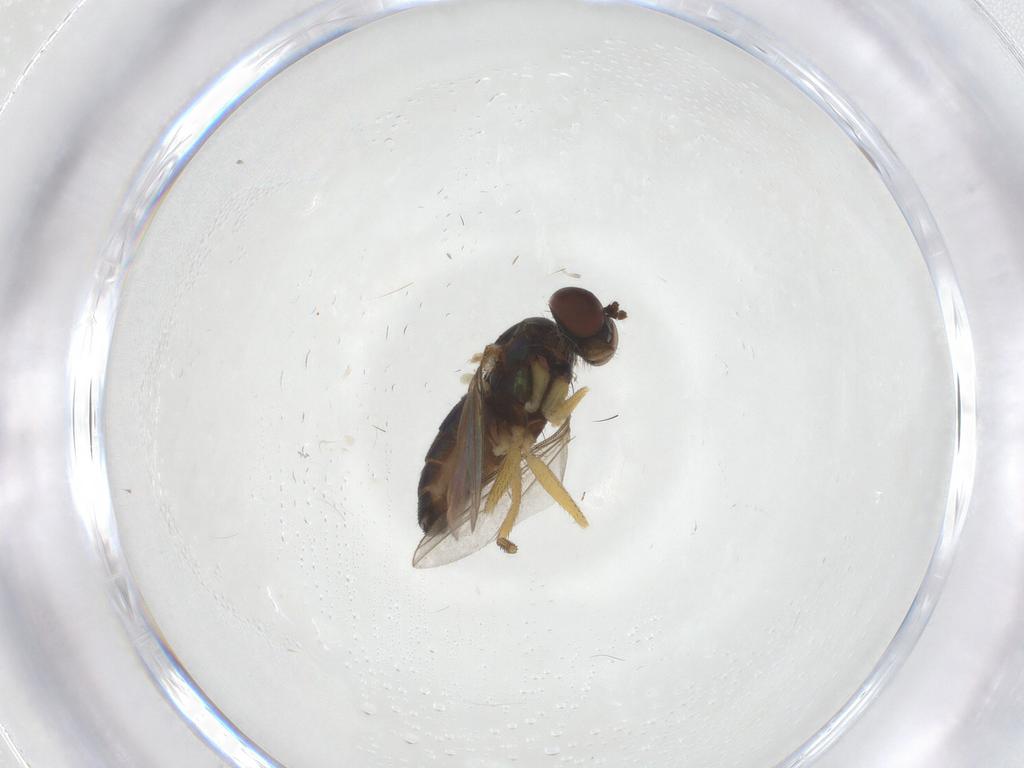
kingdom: Animalia
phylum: Arthropoda
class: Insecta
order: Diptera
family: Dolichopodidae
